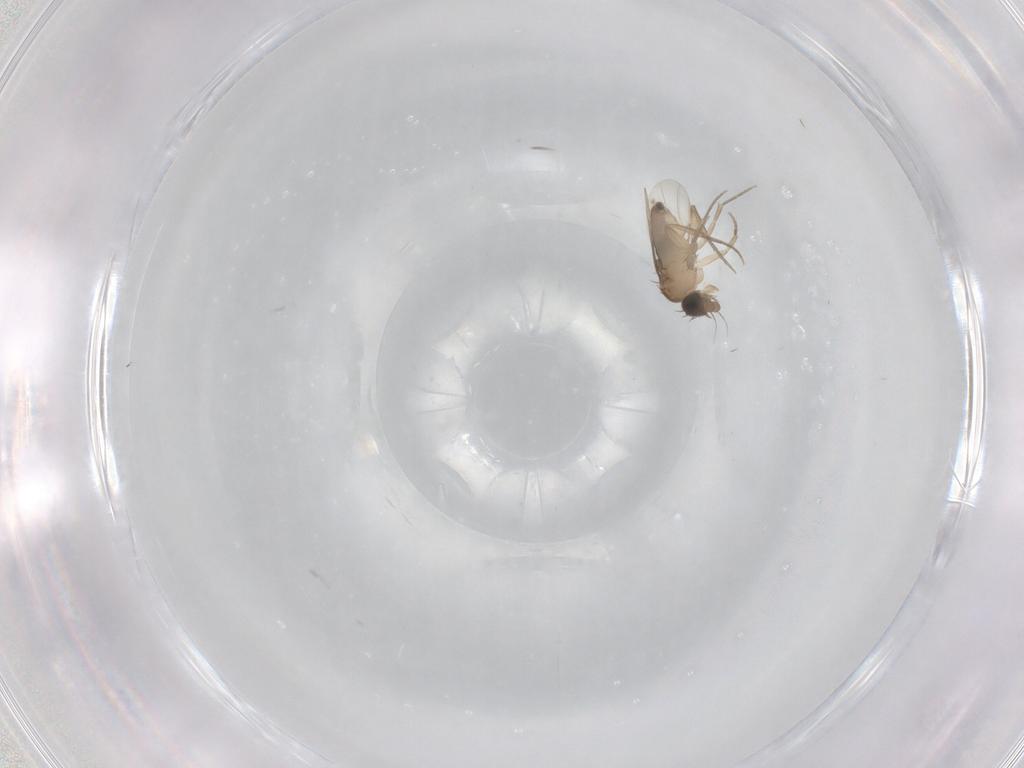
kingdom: Animalia
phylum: Arthropoda
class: Insecta
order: Diptera
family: Phoridae
